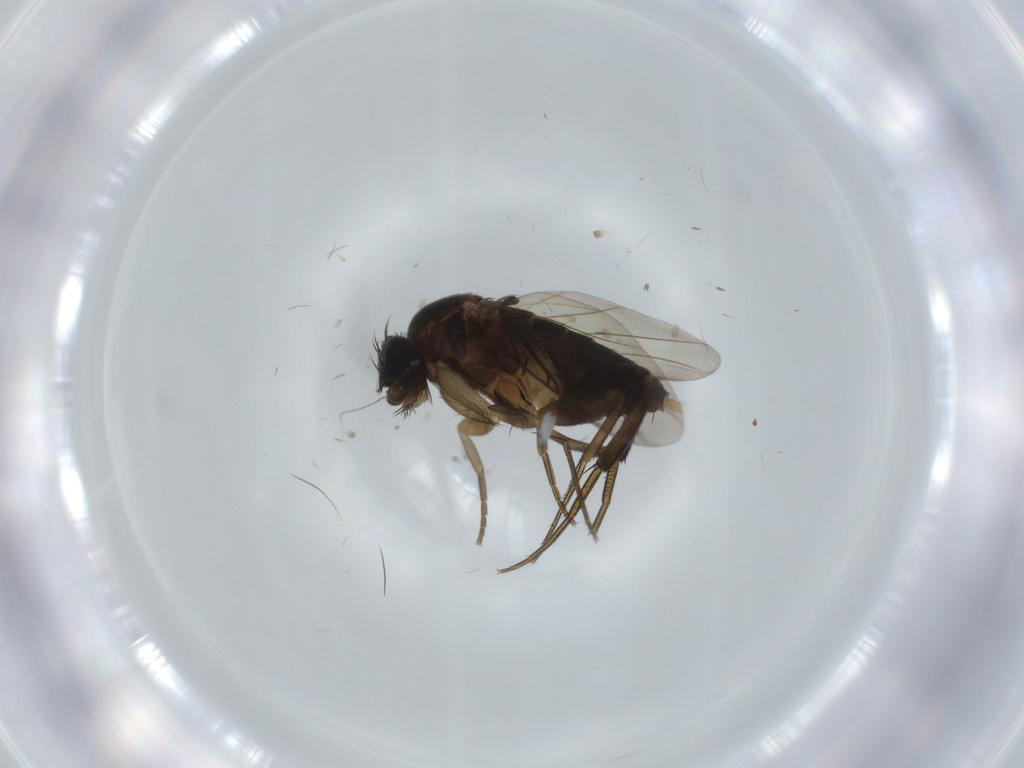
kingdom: Animalia
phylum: Arthropoda
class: Insecta
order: Diptera
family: Phoridae
